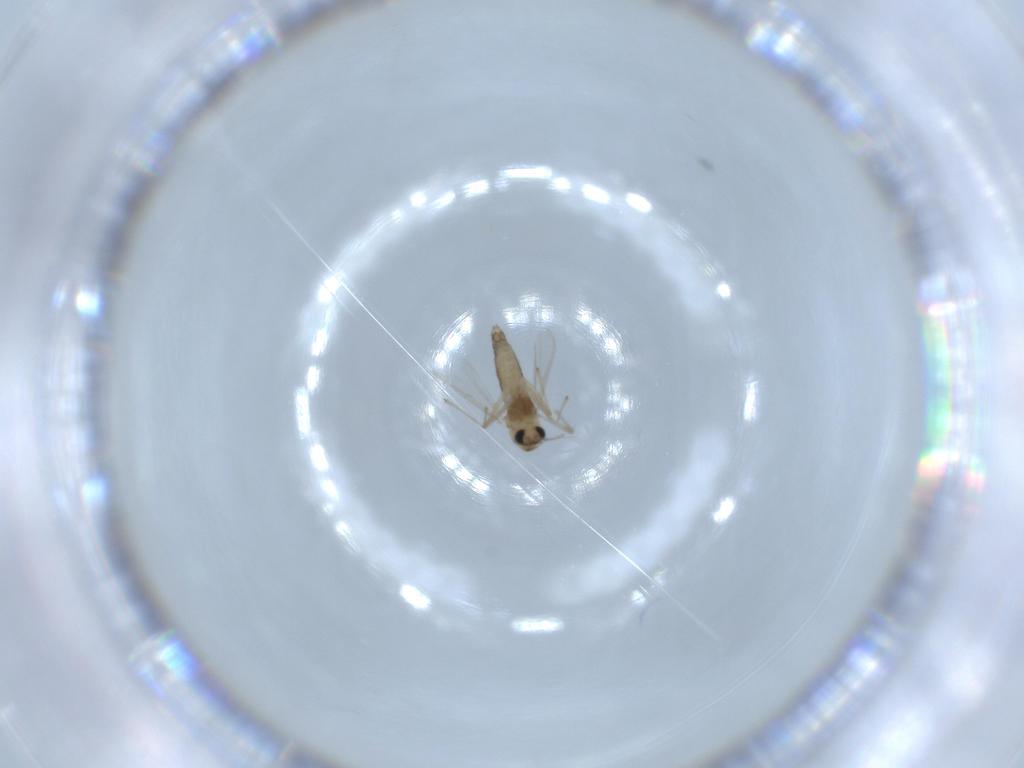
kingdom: Animalia
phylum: Arthropoda
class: Insecta
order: Diptera
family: Chironomidae
